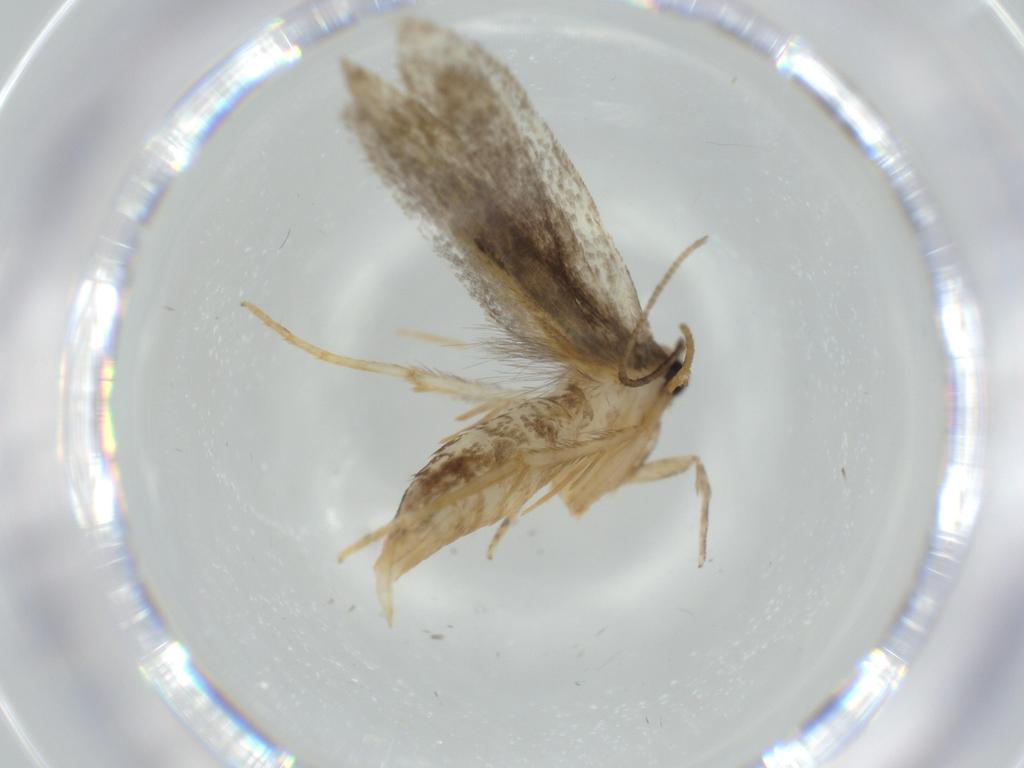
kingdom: Animalia
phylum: Arthropoda
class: Insecta
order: Lepidoptera
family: Tineidae
